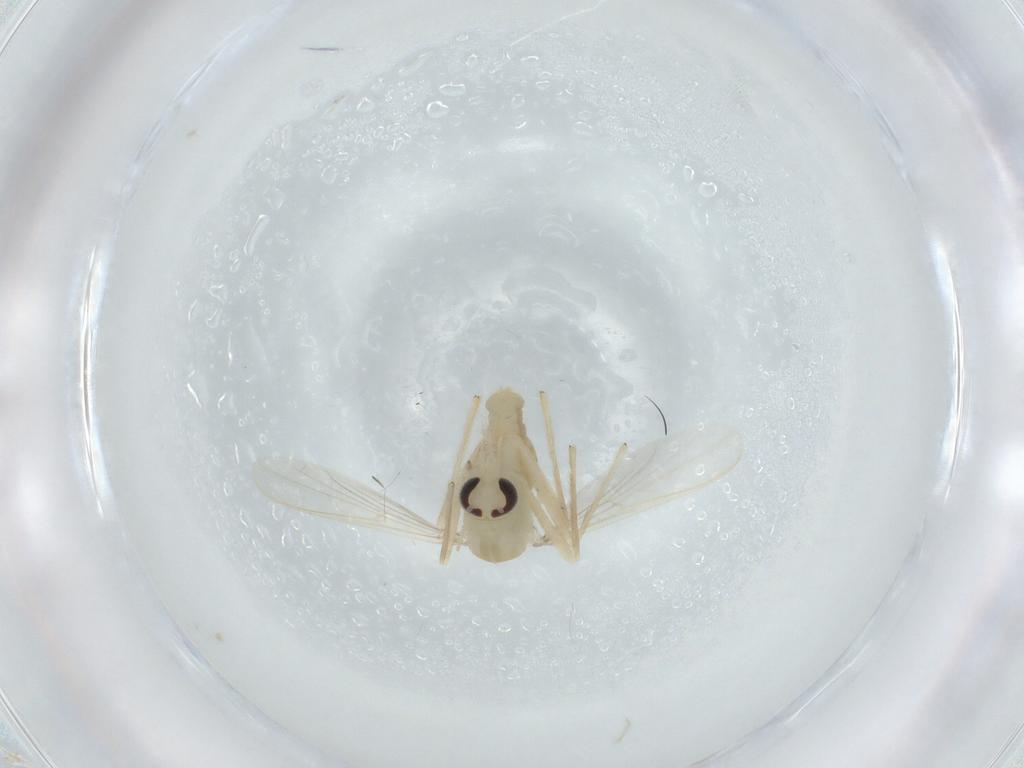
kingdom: Animalia
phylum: Arthropoda
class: Insecta
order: Diptera
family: Chironomidae
